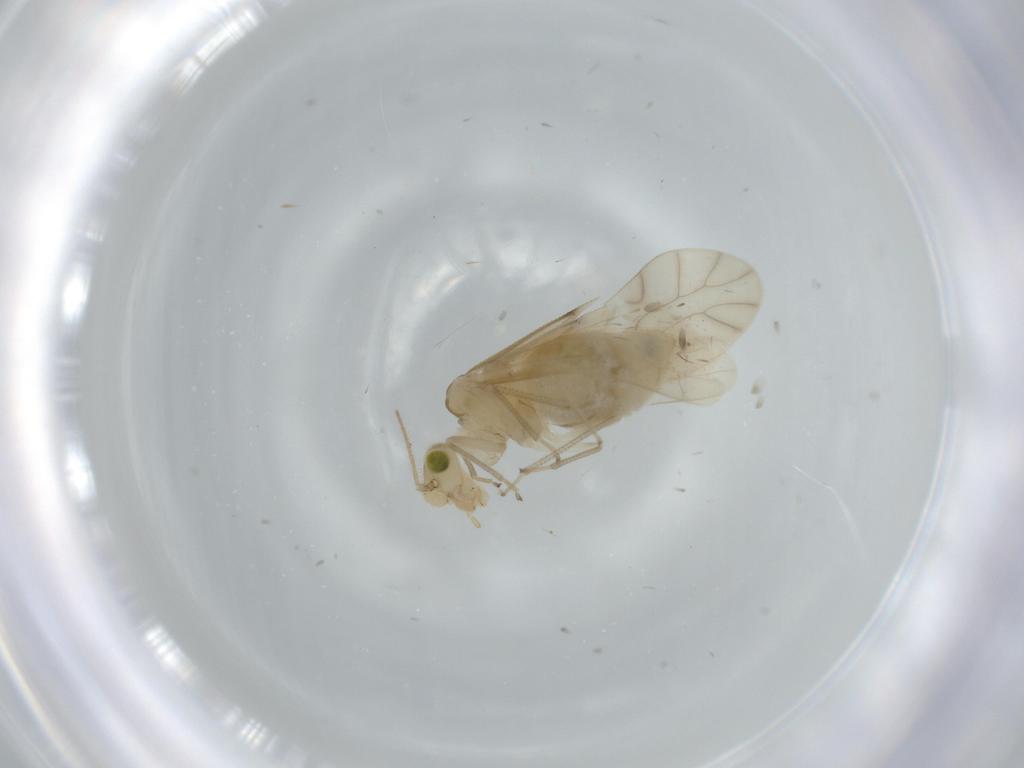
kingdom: Animalia
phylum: Arthropoda
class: Insecta
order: Psocodea
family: Caeciliusidae
